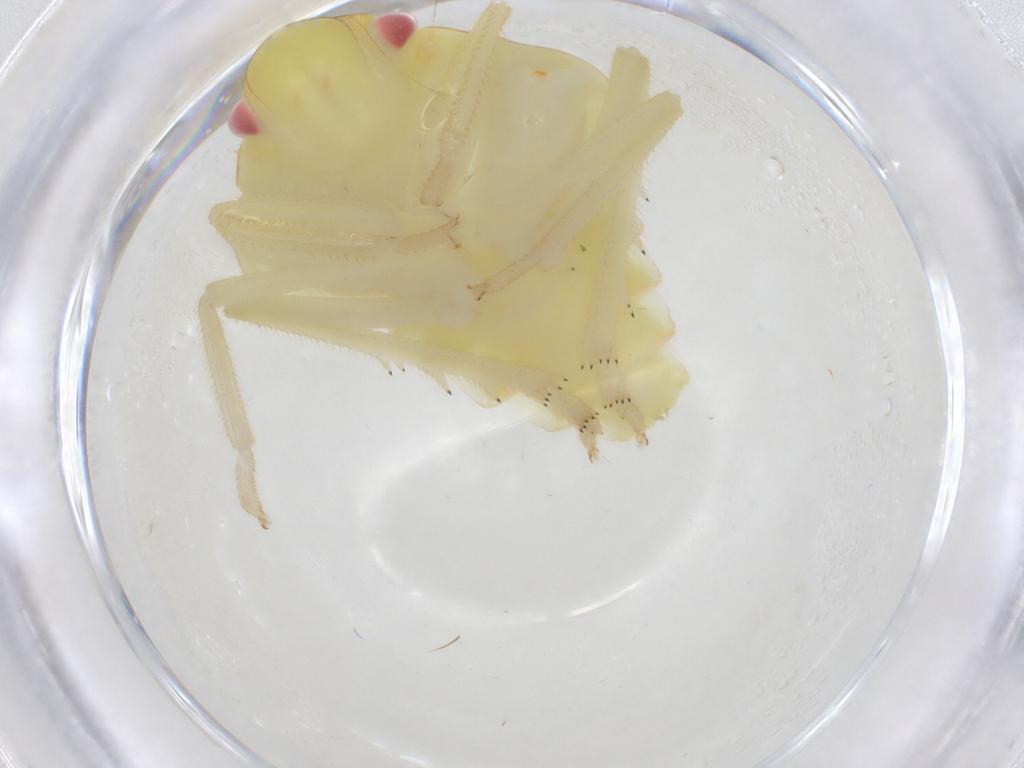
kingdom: Animalia
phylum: Arthropoda
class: Insecta
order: Hemiptera
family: Tropiduchidae
